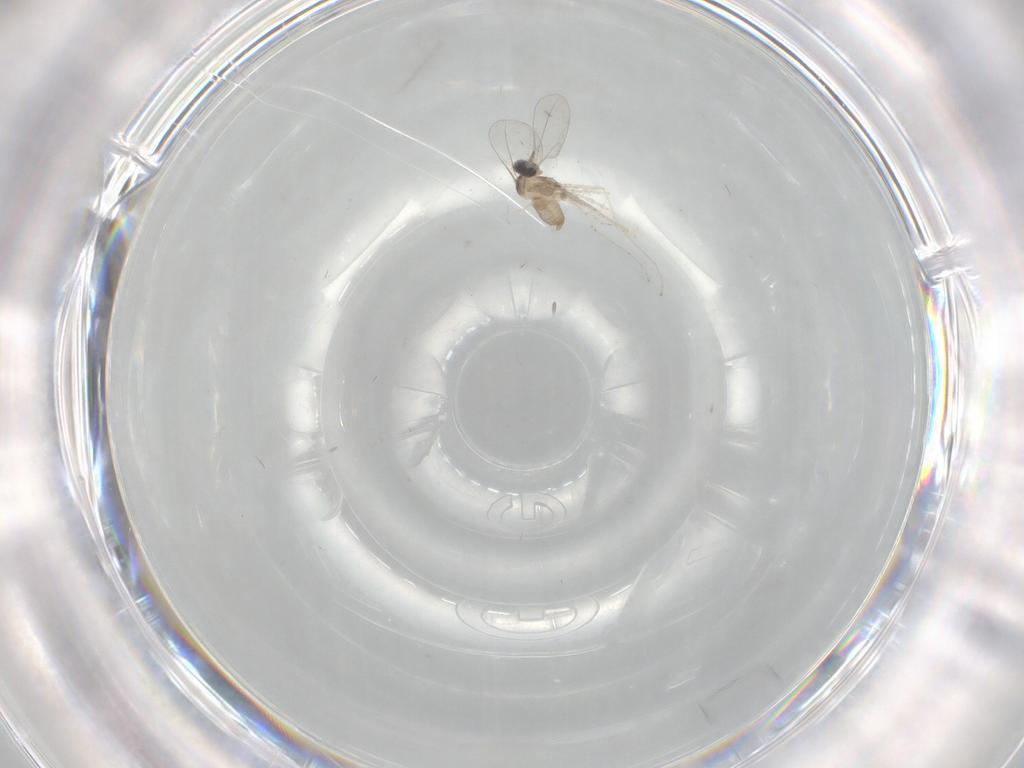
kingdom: Animalia
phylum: Arthropoda
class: Insecta
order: Diptera
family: Cecidomyiidae
